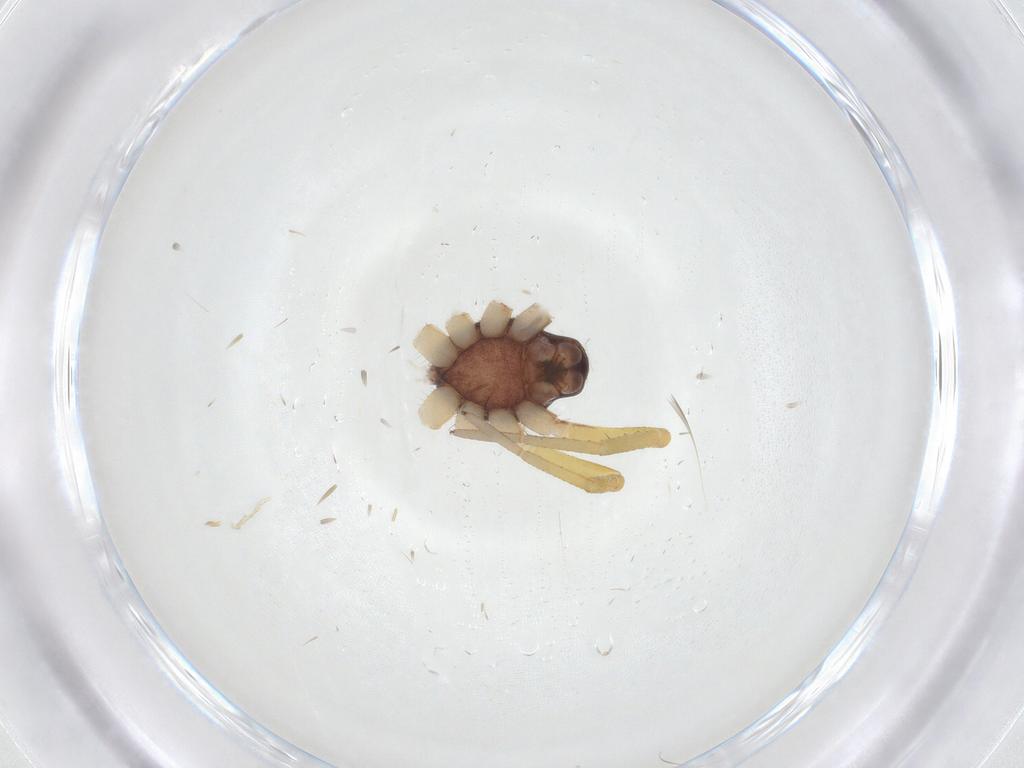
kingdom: Animalia
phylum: Arthropoda
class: Arachnida
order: Araneae
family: Corinnidae
